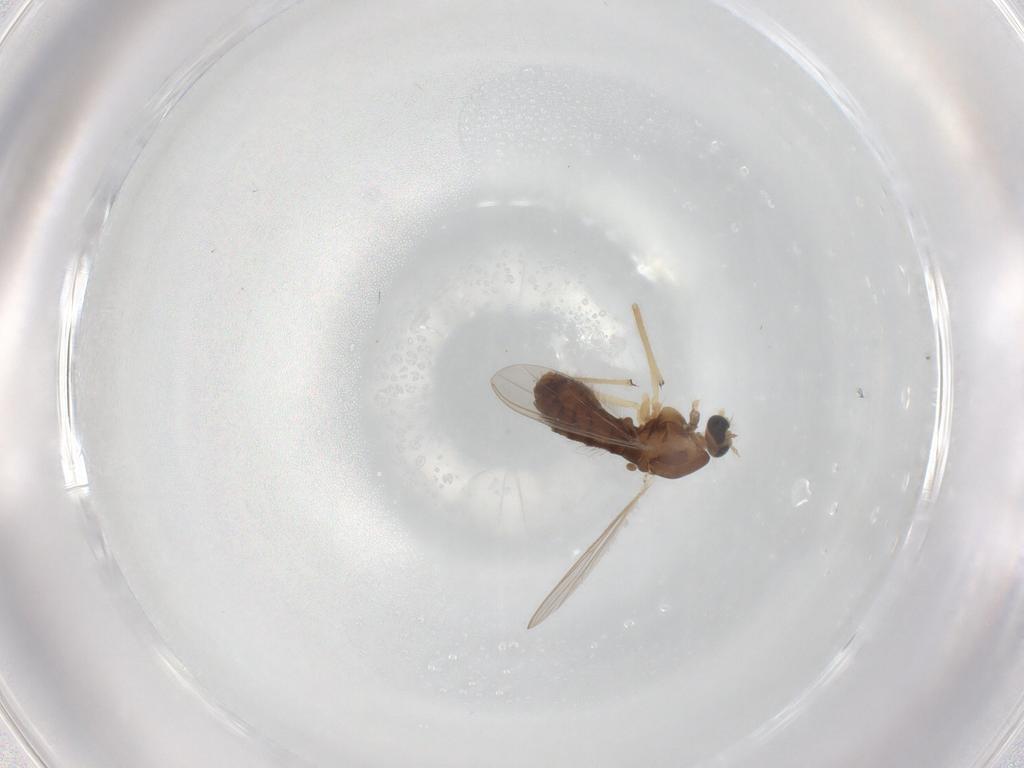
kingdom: Animalia
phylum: Arthropoda
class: Insecta
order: Diptera
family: Chironomidae
